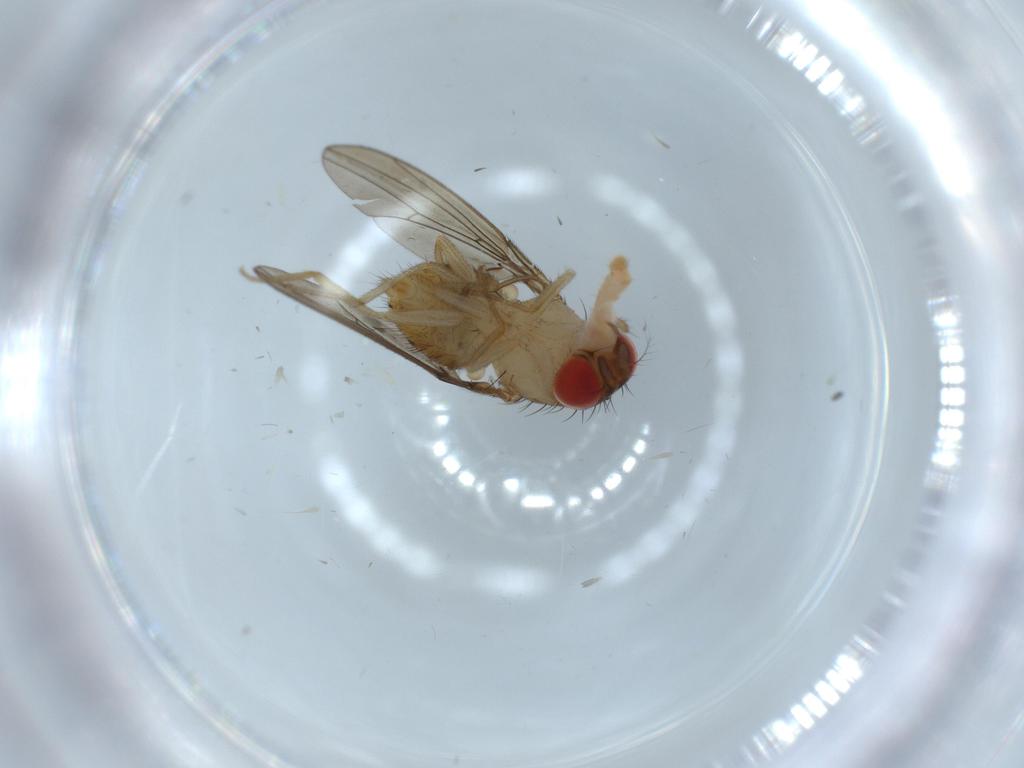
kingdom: Animalia
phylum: Arthropoda
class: Insecta
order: Diptera
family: Drosophilidae
